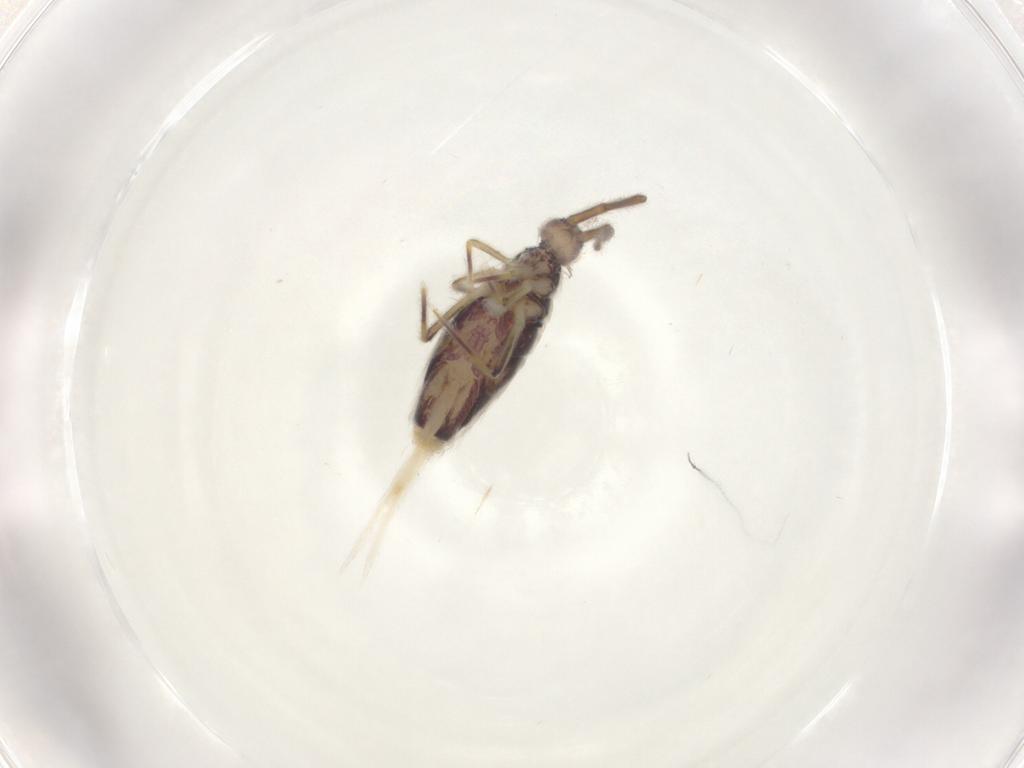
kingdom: Animalia
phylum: Arthropoda
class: Collembola
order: Entomobryomorpha
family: Entomobryidae
